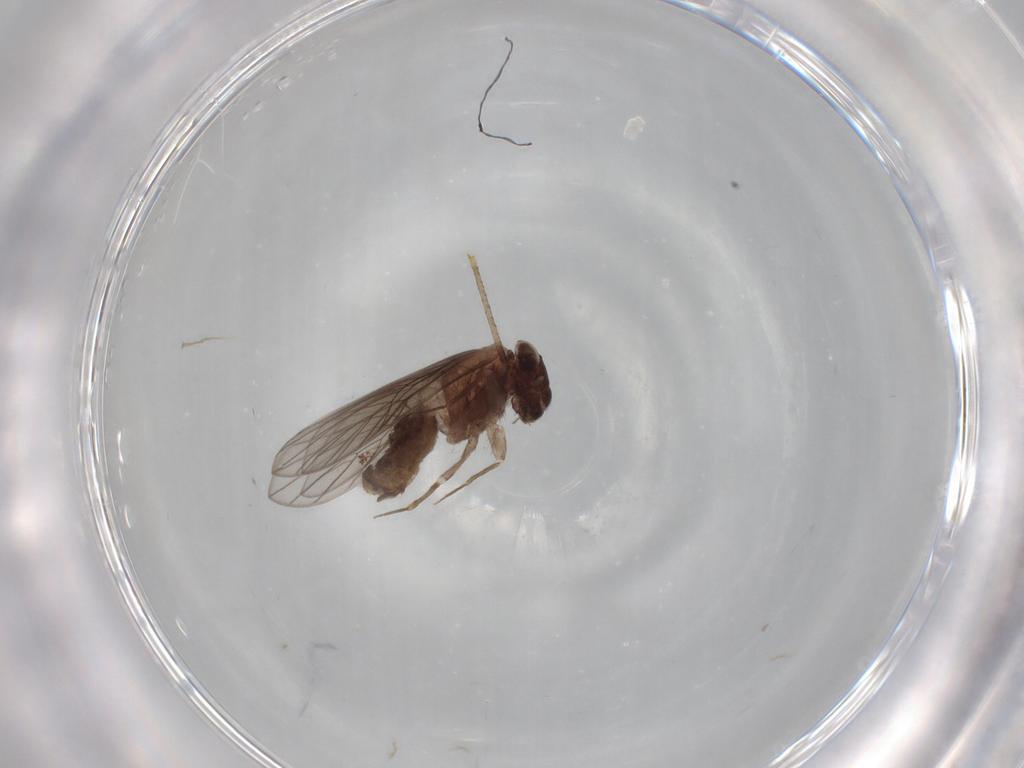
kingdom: Animalia
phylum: Arthropoda
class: Insecta
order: Psocodea
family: Lepidopsocidae
